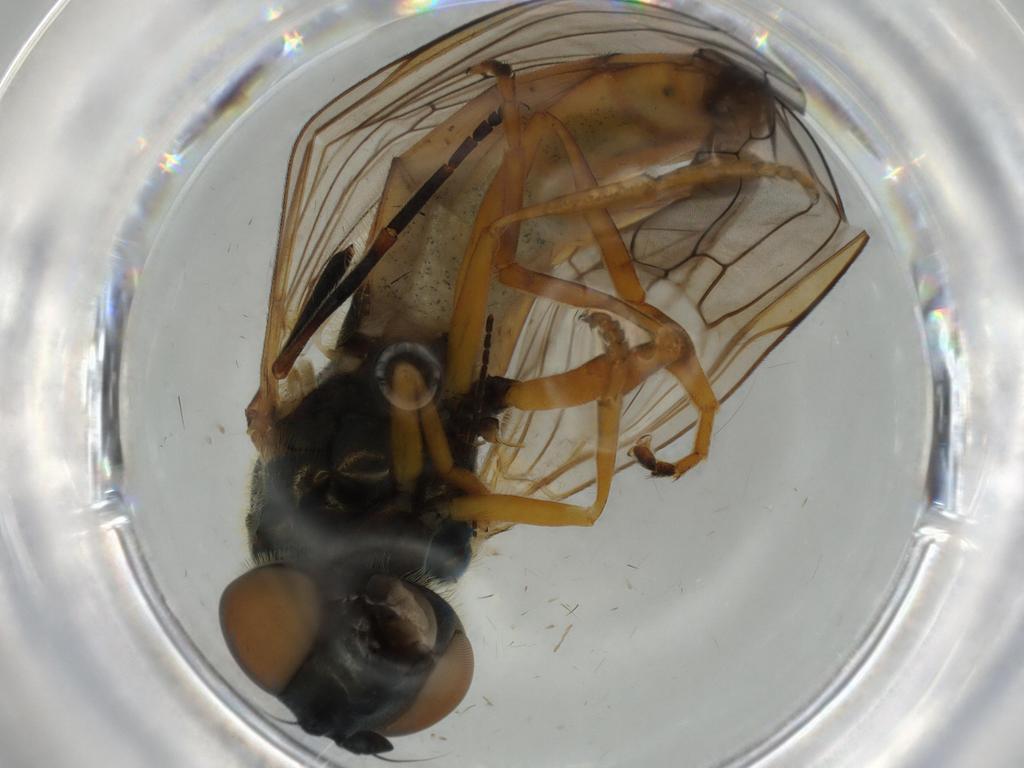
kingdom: Animalia
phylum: Arthropoda
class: Insecta
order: Diptera
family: Syrphidae
